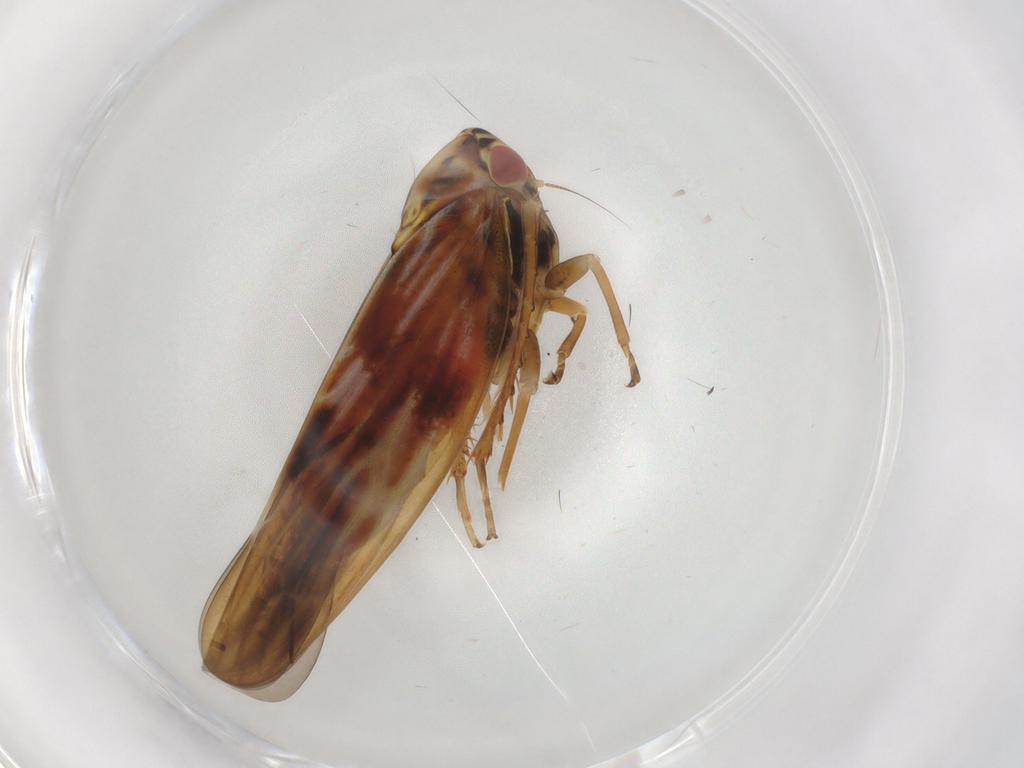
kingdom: Animalia
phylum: Arthropoda
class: Insecta
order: Hemiptera
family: Cicadellidae
